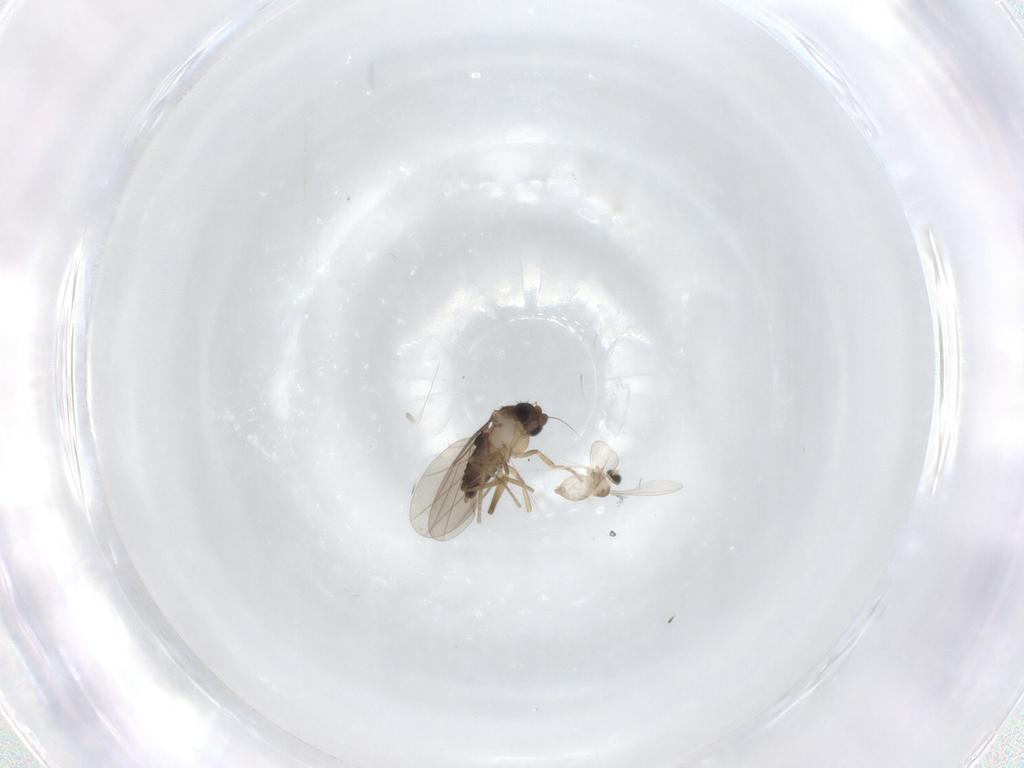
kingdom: Animalia
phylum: Arthropoda
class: Insecta
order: Diptera
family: Phoridae
